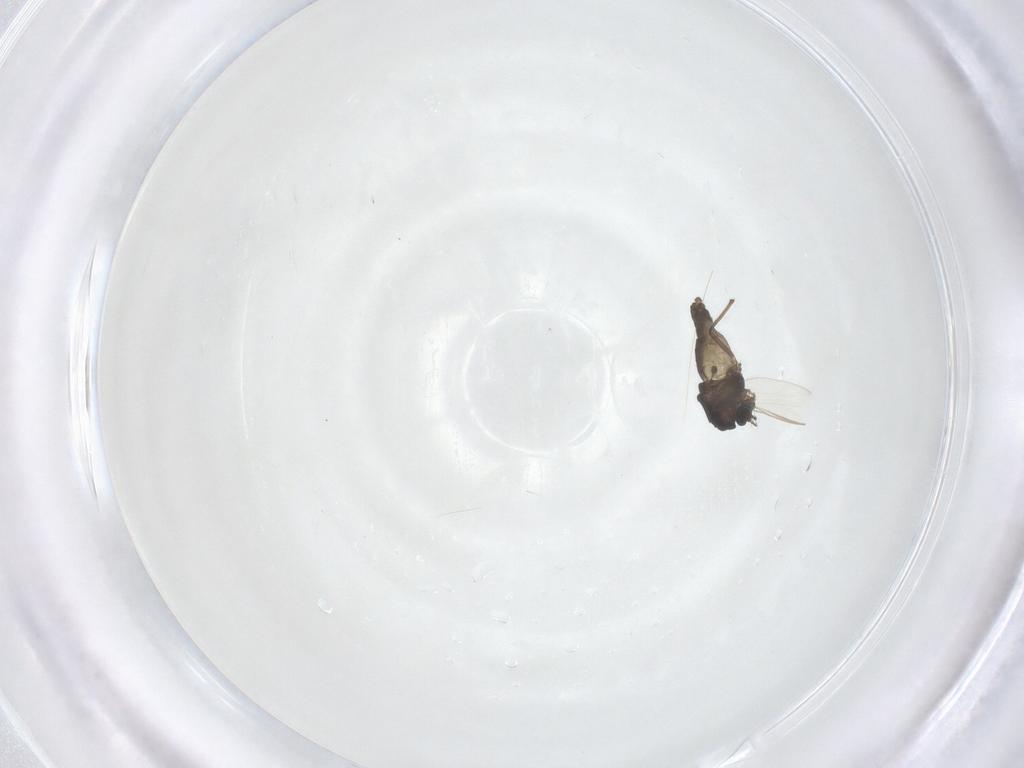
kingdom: Animalia
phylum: Arthropoda
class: Insecta
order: Diptera
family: Chironomidae
